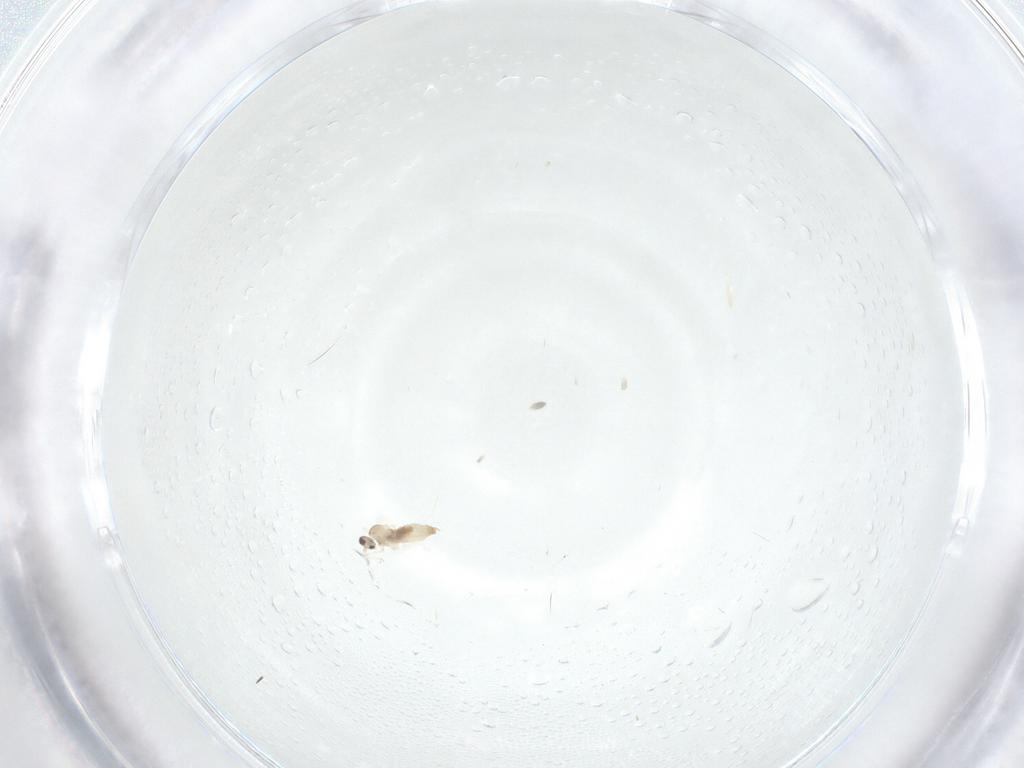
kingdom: Animalia
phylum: Arthropoda
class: Insecta
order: Diptera
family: Cecidomyiidae
